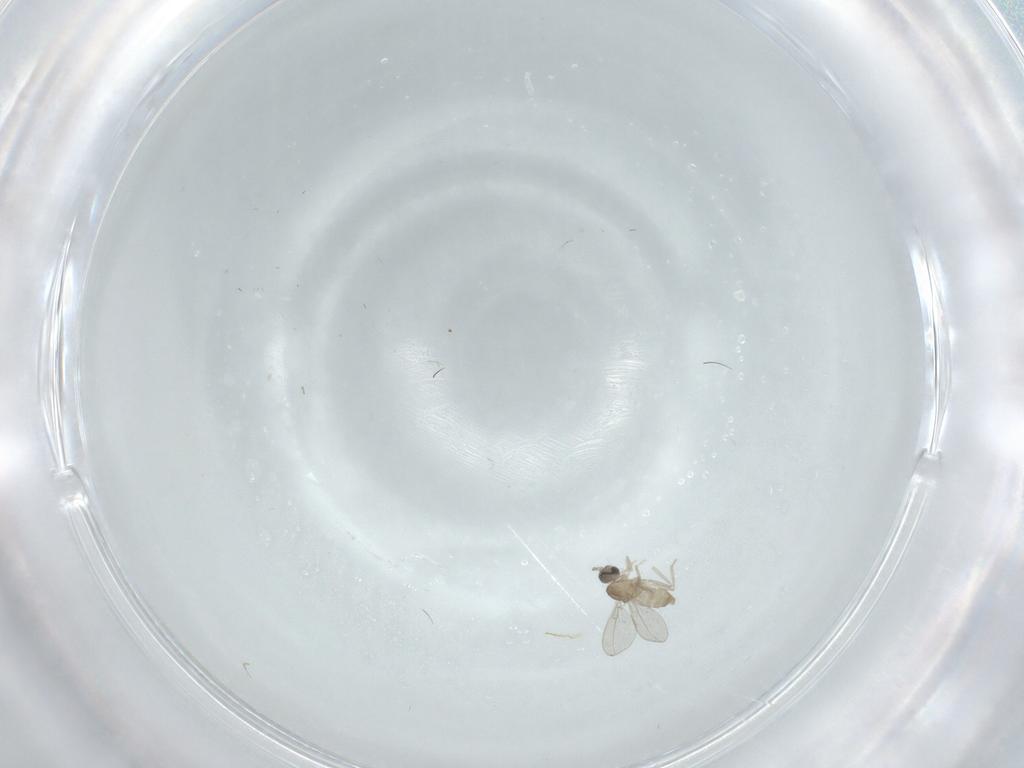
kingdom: Animalia
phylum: Arthropoda
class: Insecta
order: Diptera
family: Cecidomyiidae
